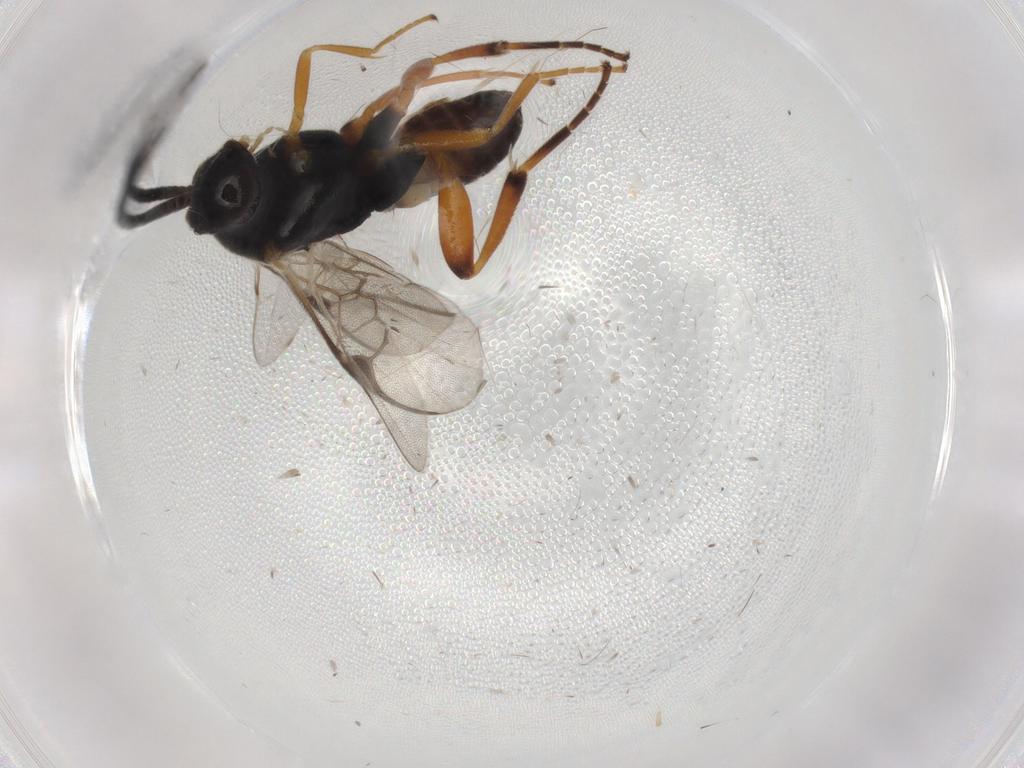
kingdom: Animalia
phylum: Arthropoda
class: Insecta
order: Hymenoptera
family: Braconidae
